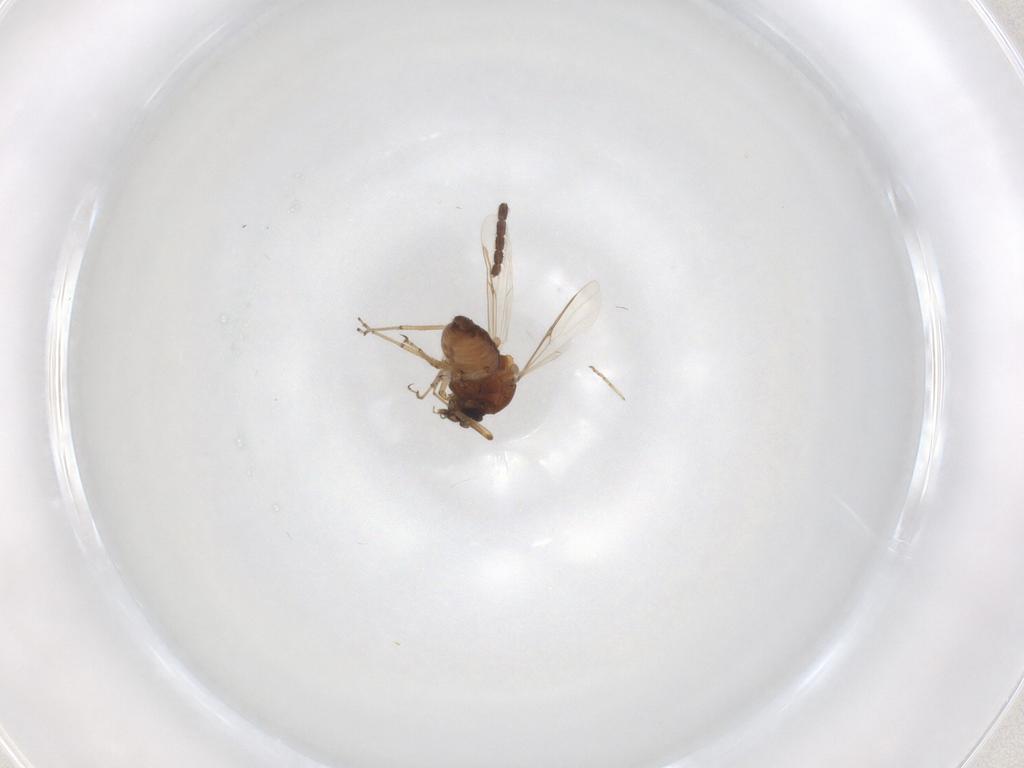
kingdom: Animalia
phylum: Arthropoda
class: Insecta
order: Diptera
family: Ceratopogonidae
